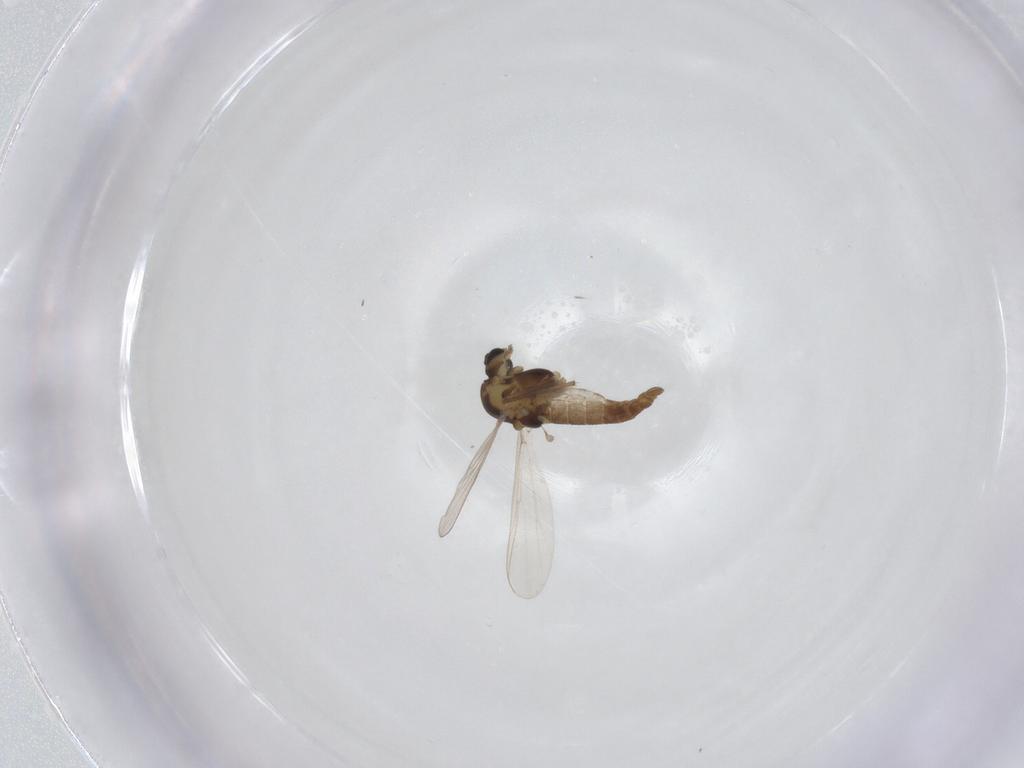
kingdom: Animalia
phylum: Arthropoda
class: Insecta
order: Diptera
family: Chironomidae
